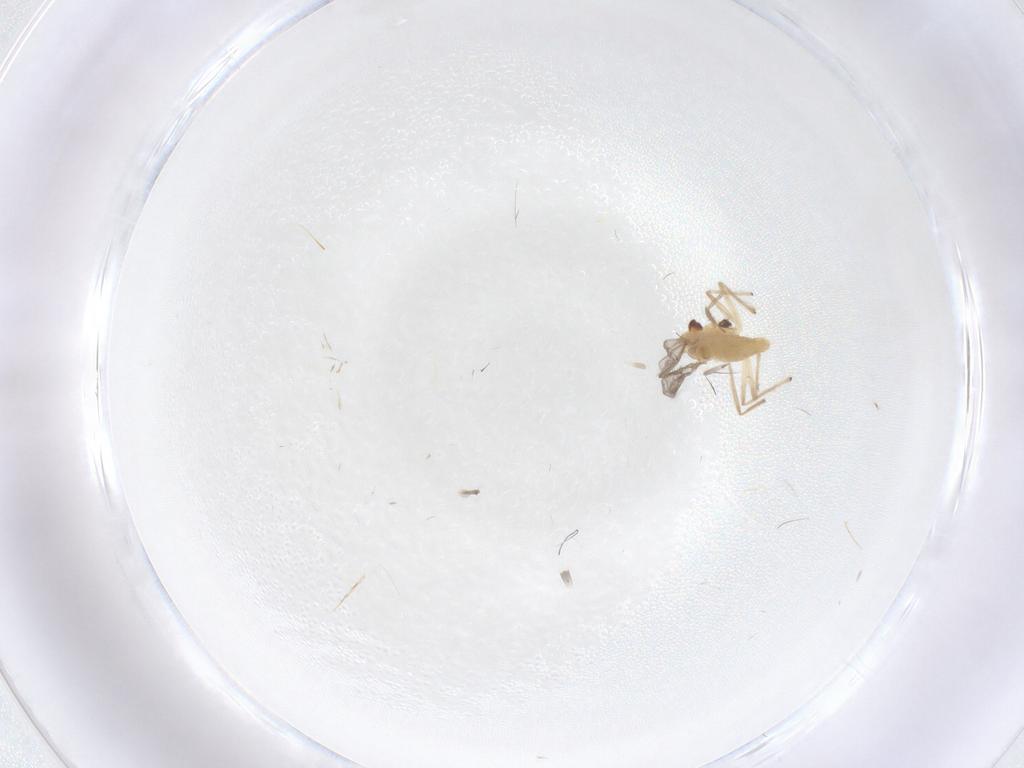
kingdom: Animalia
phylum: Arthropoda
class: Insecta
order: Diptera
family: Chironomidae
